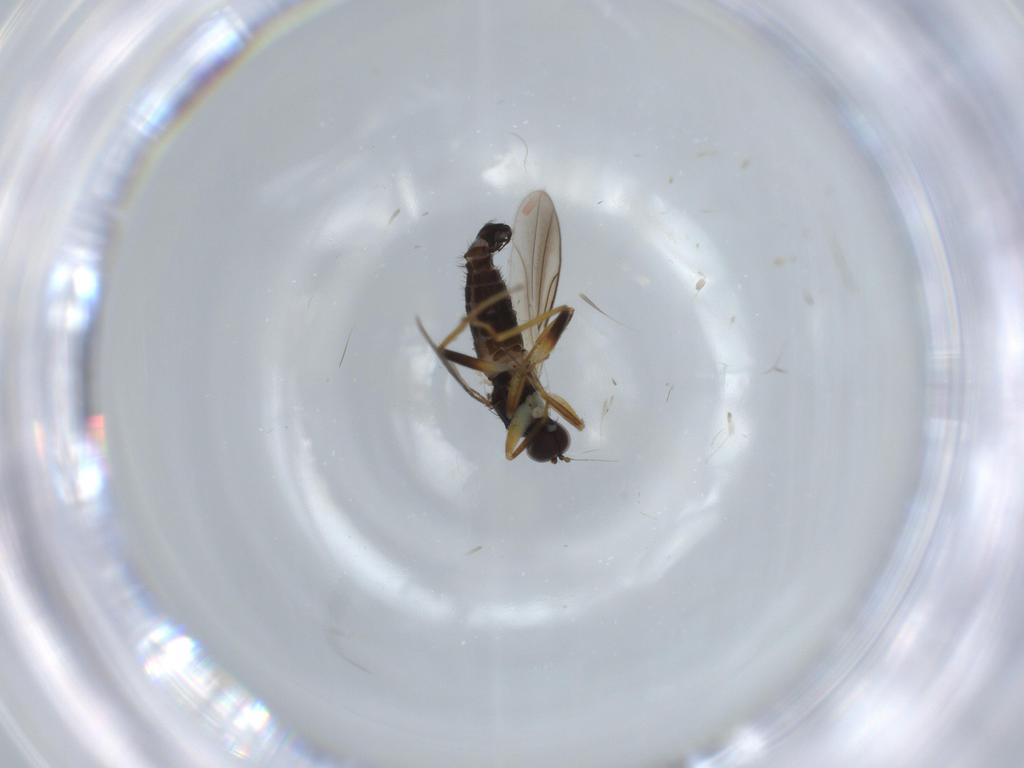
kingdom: Animalia
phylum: Arthropoda
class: Insecta
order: Diptera
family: Hybotidae
